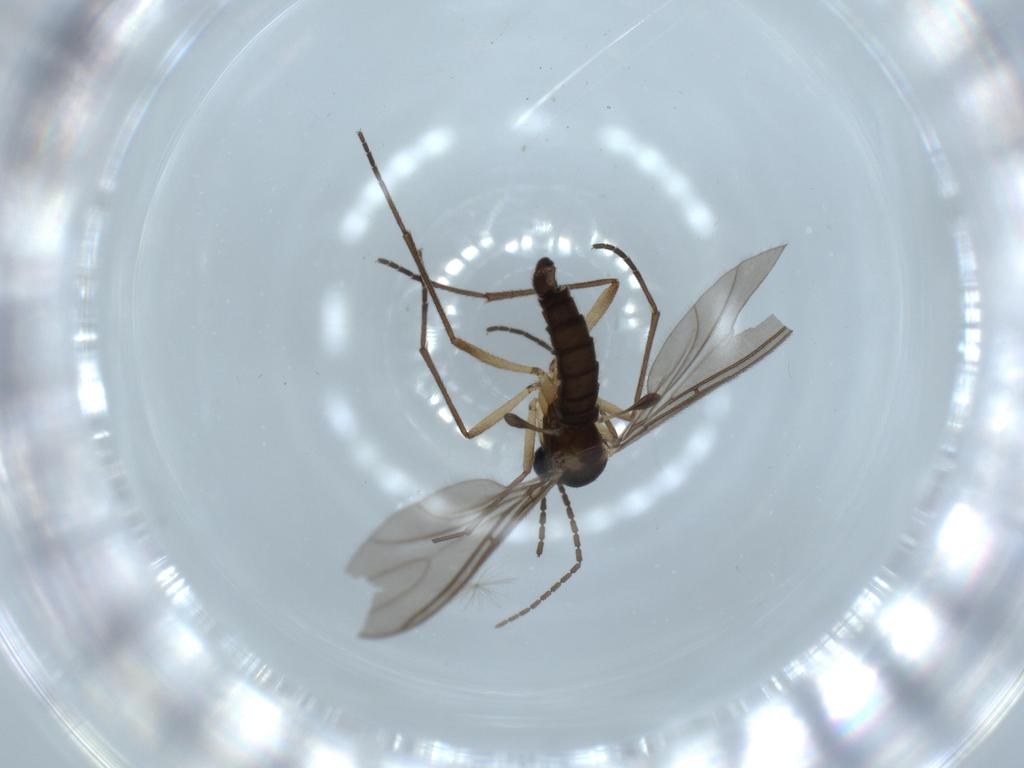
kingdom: Animalia
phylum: Arthropoda
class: Insecta
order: Diptera
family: Sciaridae
